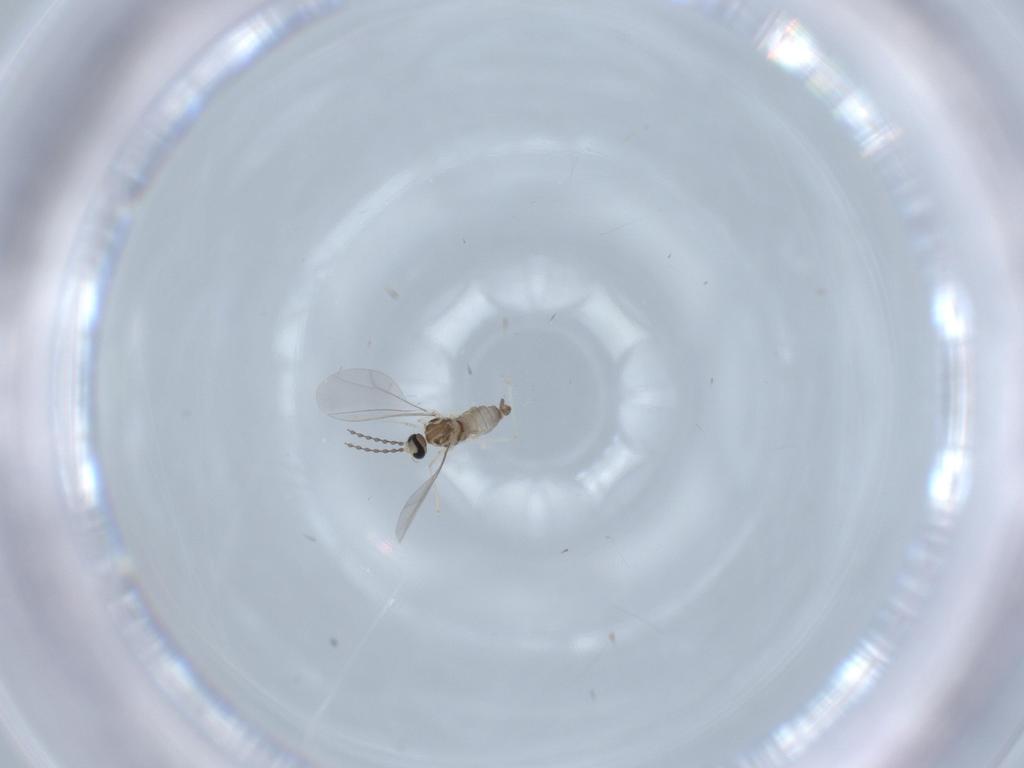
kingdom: Animalia
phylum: Arthropoda
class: Insecta
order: Diptera
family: Cecidomyiidae
